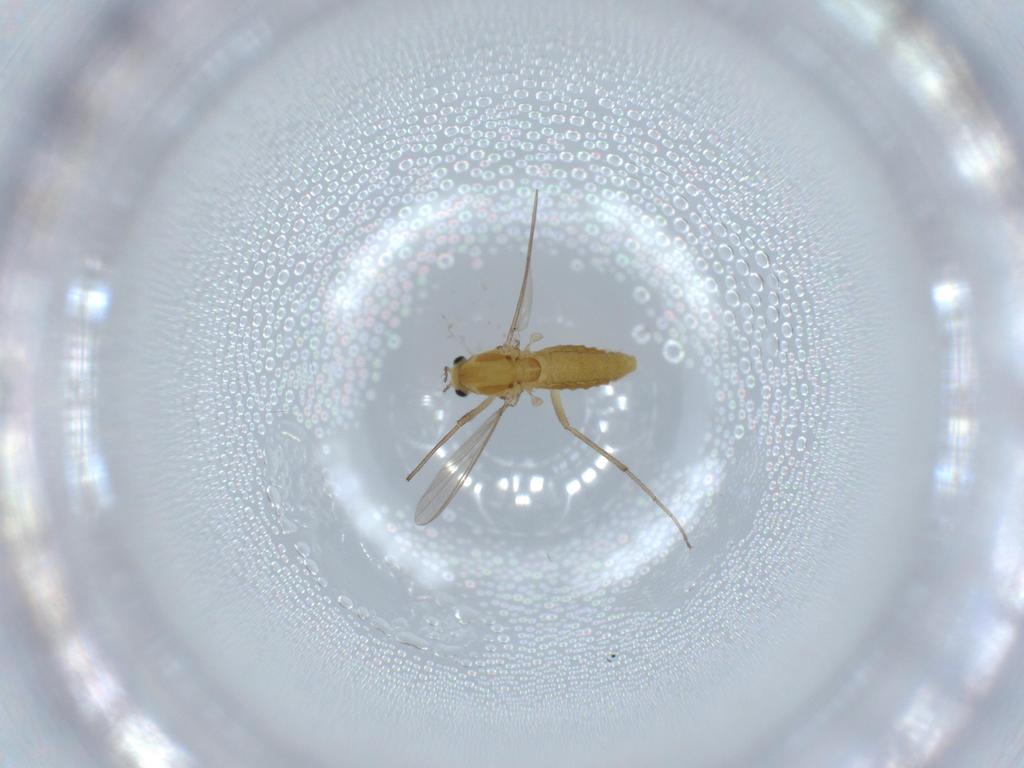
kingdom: Animalia
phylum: Arthropoda
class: Insecta
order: Diptera
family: Chironomidae
